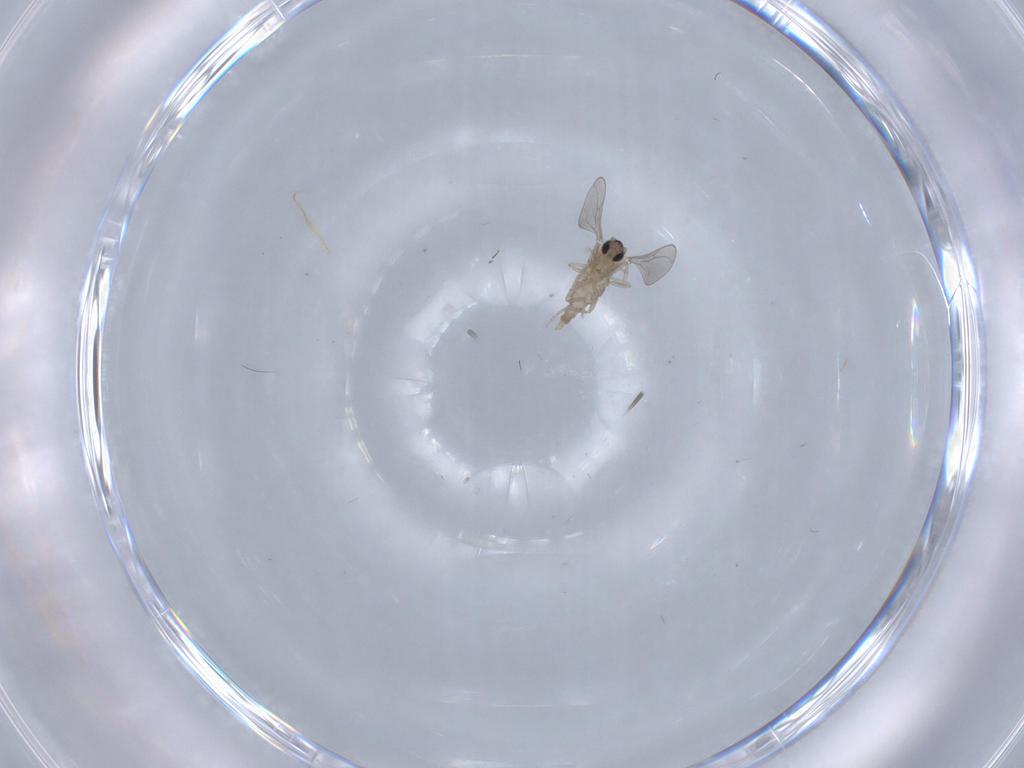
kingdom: Animalia
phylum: Arthropoda
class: Insecta
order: Diptera
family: Cecidomyiidae
